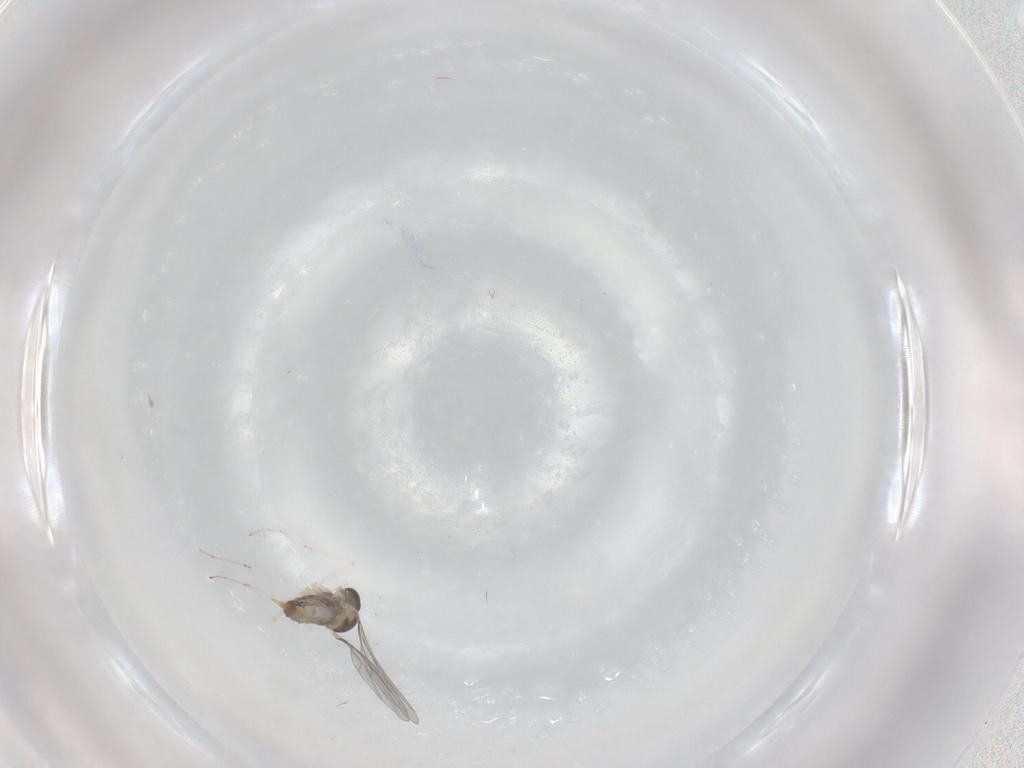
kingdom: Animalia
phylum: Arthropoda
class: Insecta
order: Diptera
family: Cecidomyiidae
